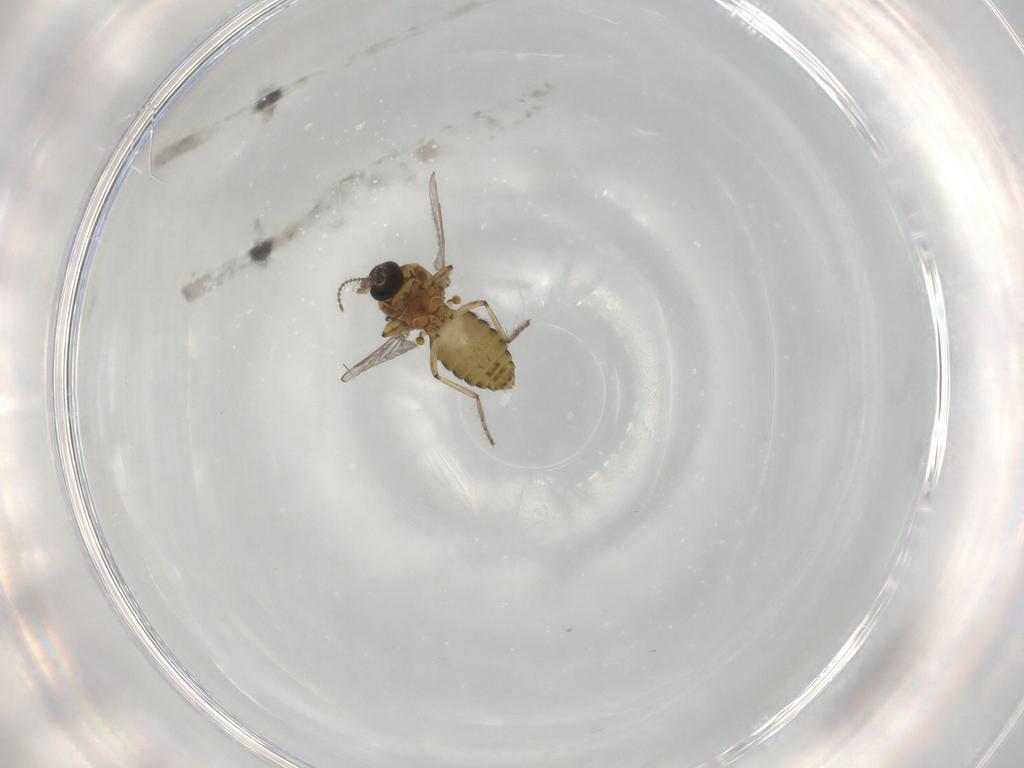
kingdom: Animalia
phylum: Arthropoda
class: Insecta
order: Diptera
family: Ceratopogonidae
